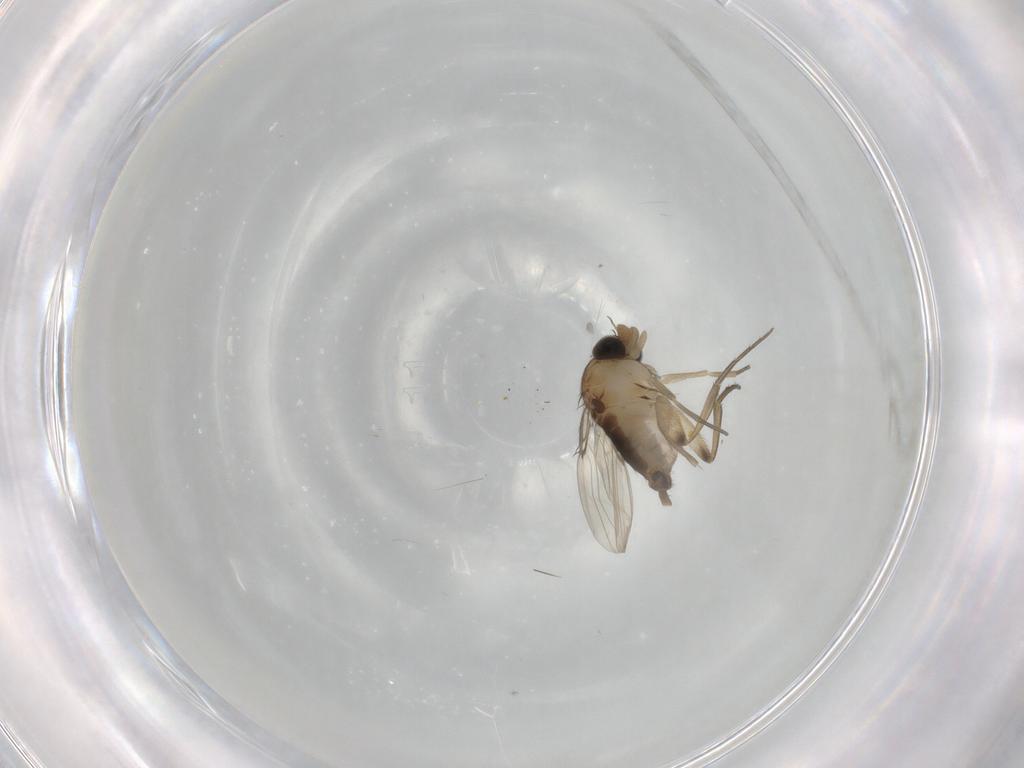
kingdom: Animalia
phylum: Arthropoda
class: Insecta
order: Diptera
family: Phoridae
